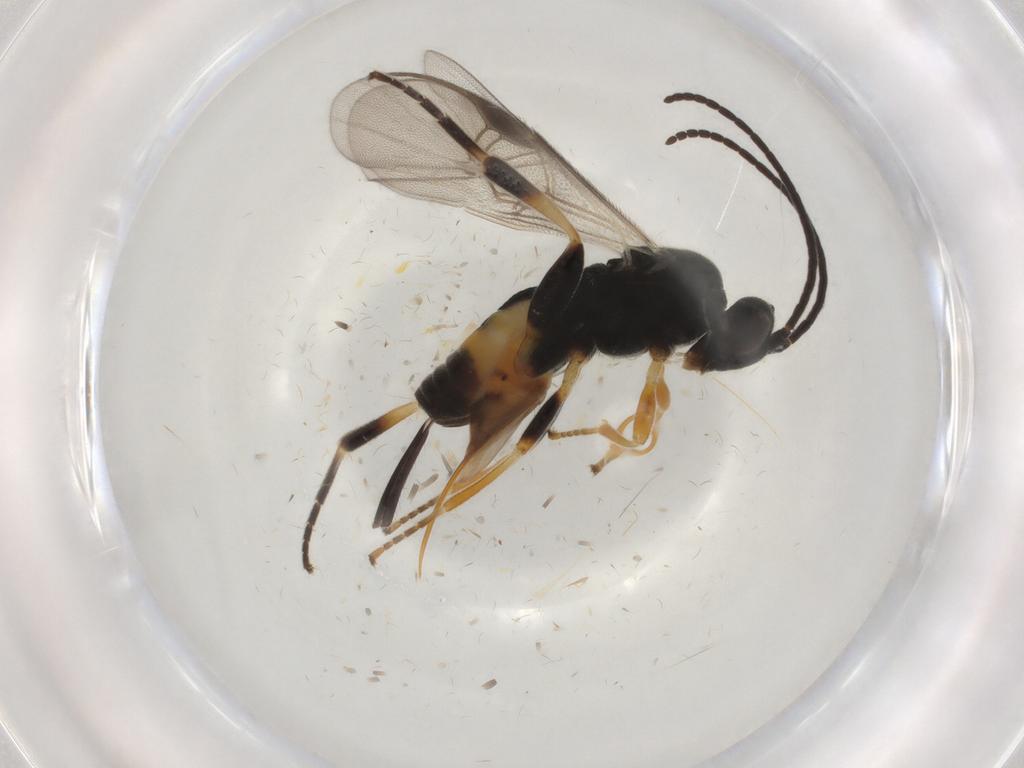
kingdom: Animalia
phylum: Arthropoda
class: Insecta
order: Hymenoptera
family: Braconidae
